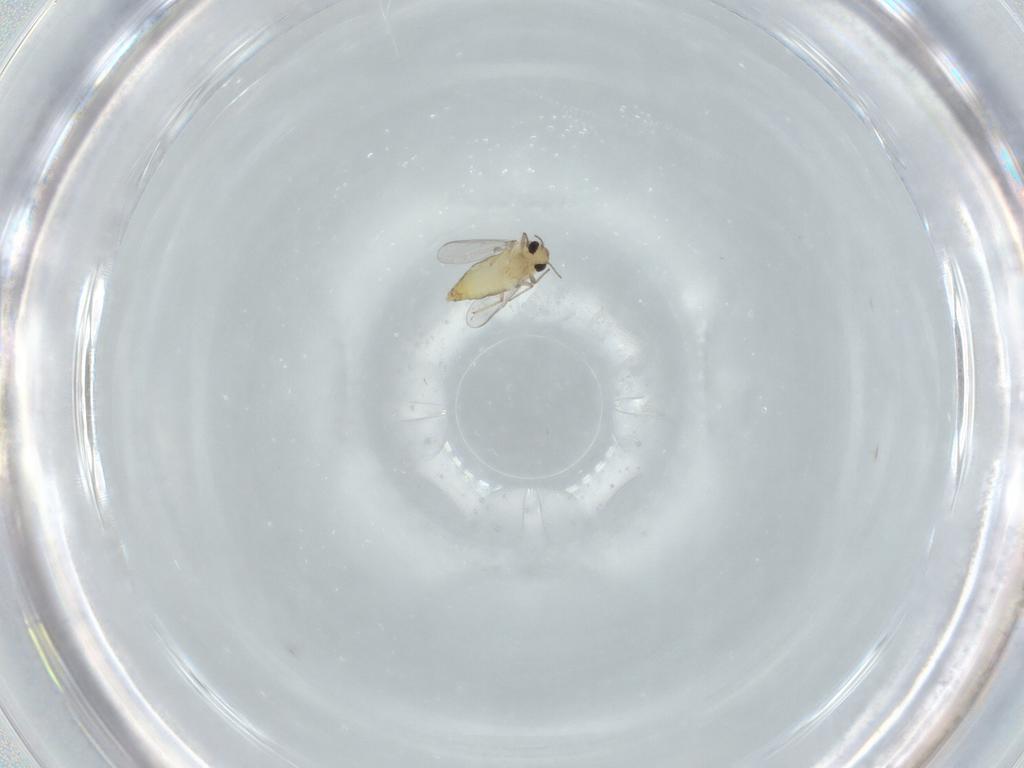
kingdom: Animalia
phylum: Arthropoda
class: Insecta
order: Diptera
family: Chironomidae
